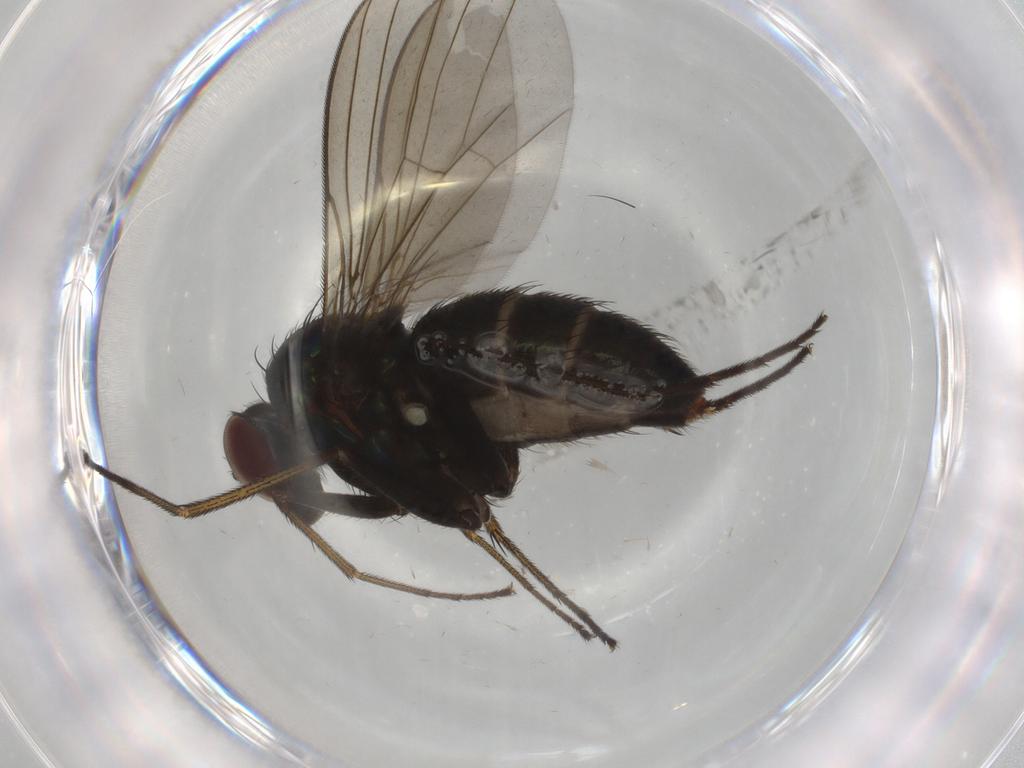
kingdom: Animalia
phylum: Arthropoda
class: Insecta
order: Diptera
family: Dolichopodidae
